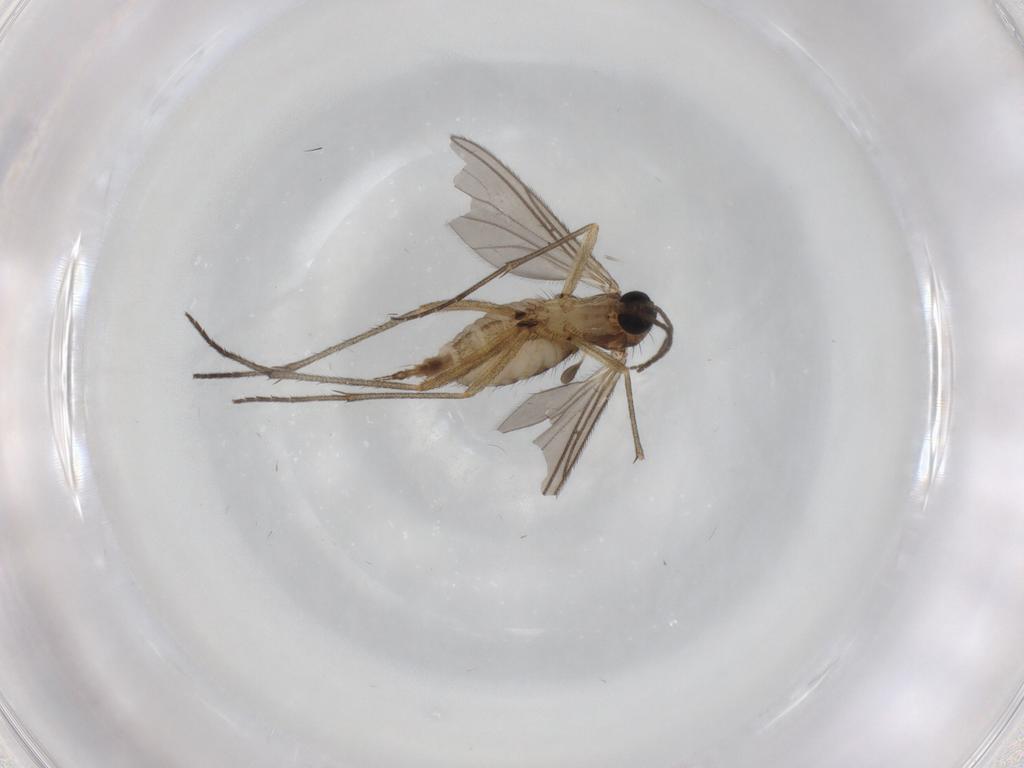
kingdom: Animalia
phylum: Arthropoda
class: Insecta
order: Diptera
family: Sciaridae
